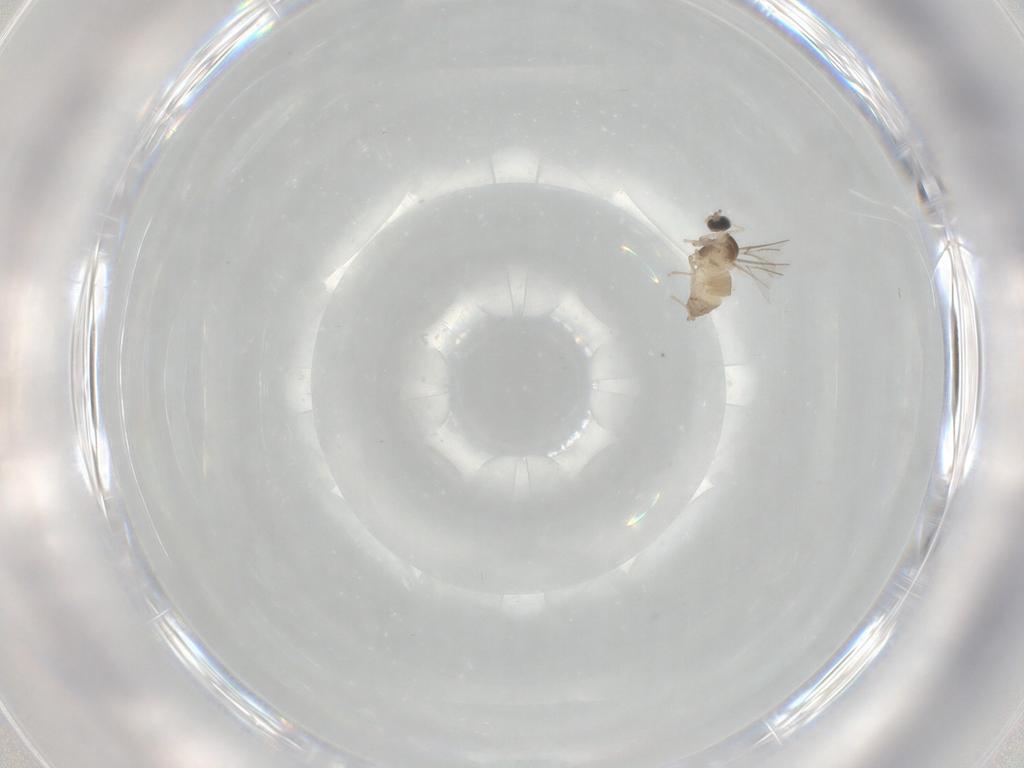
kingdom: Animalia
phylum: Arthropoda
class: Insecta
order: Diptera
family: Cecidomyiidae
